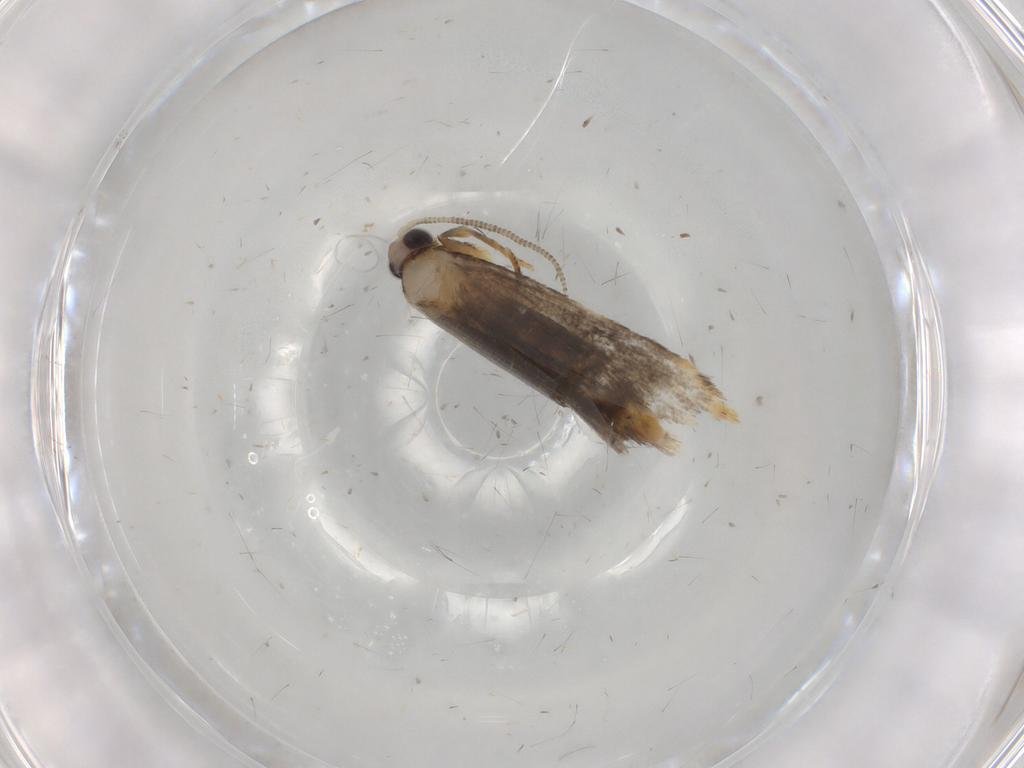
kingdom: Animalia
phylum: Arthropoda
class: Insecta
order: Lepidoptera
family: Tineidae
